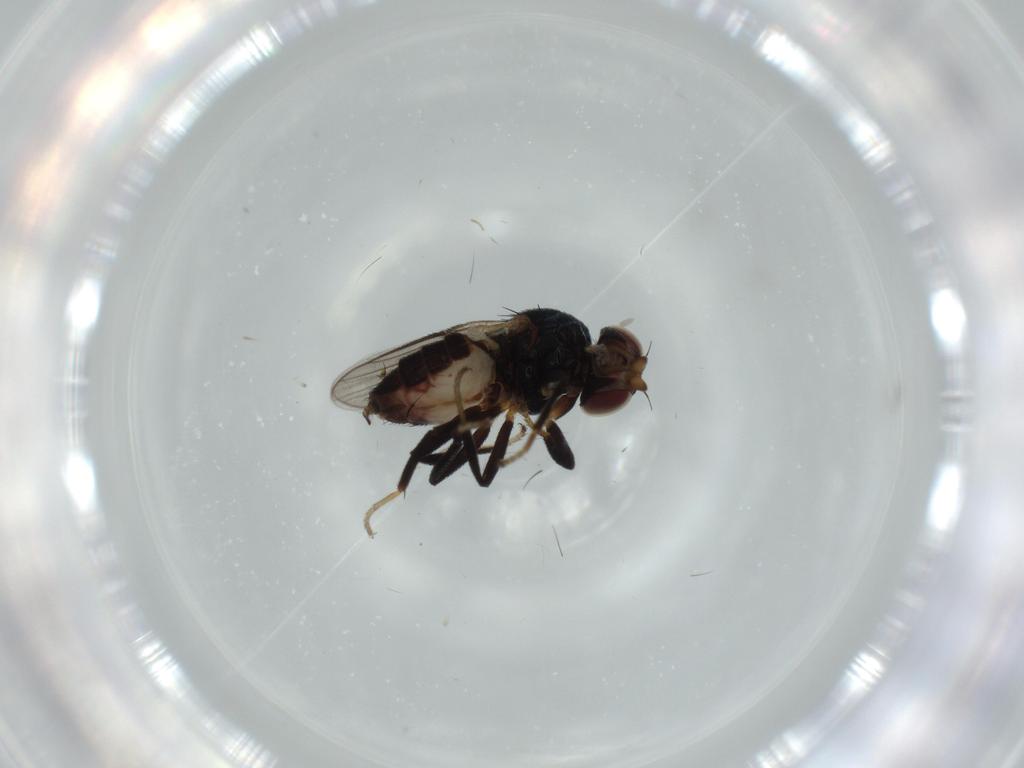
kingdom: Animalia
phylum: Arthropoda
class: Insecta
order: Diptera
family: Chloropidae
